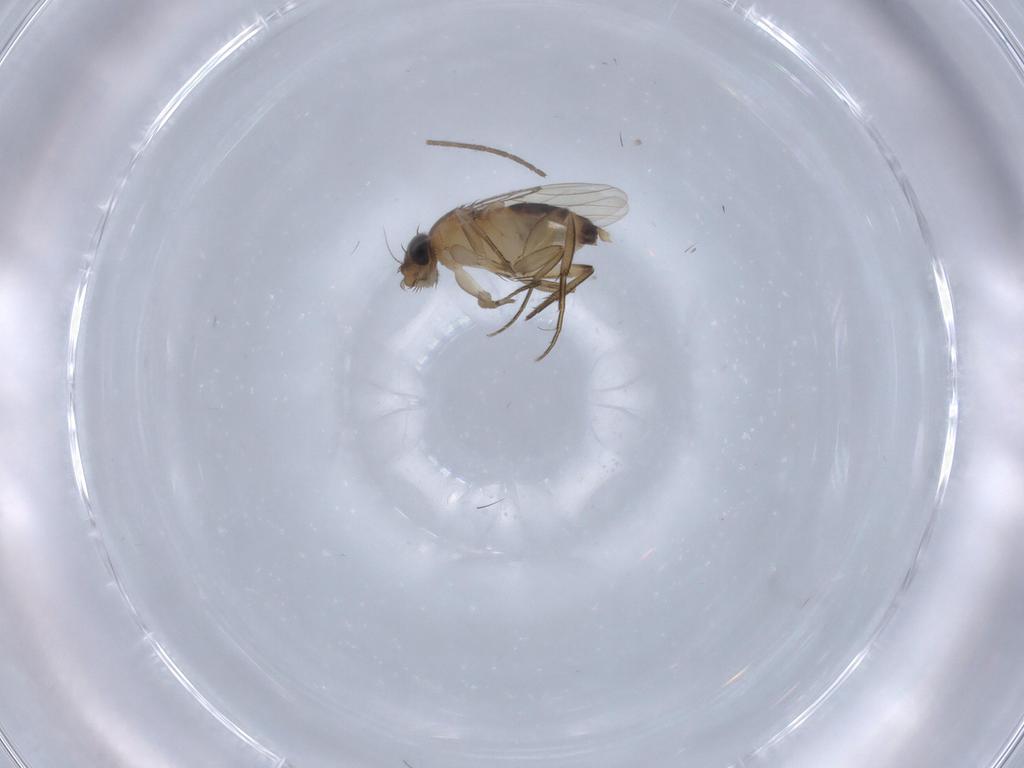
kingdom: Animalia
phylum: Arthropoda
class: Insecta
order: Diptera
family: Phoridae
